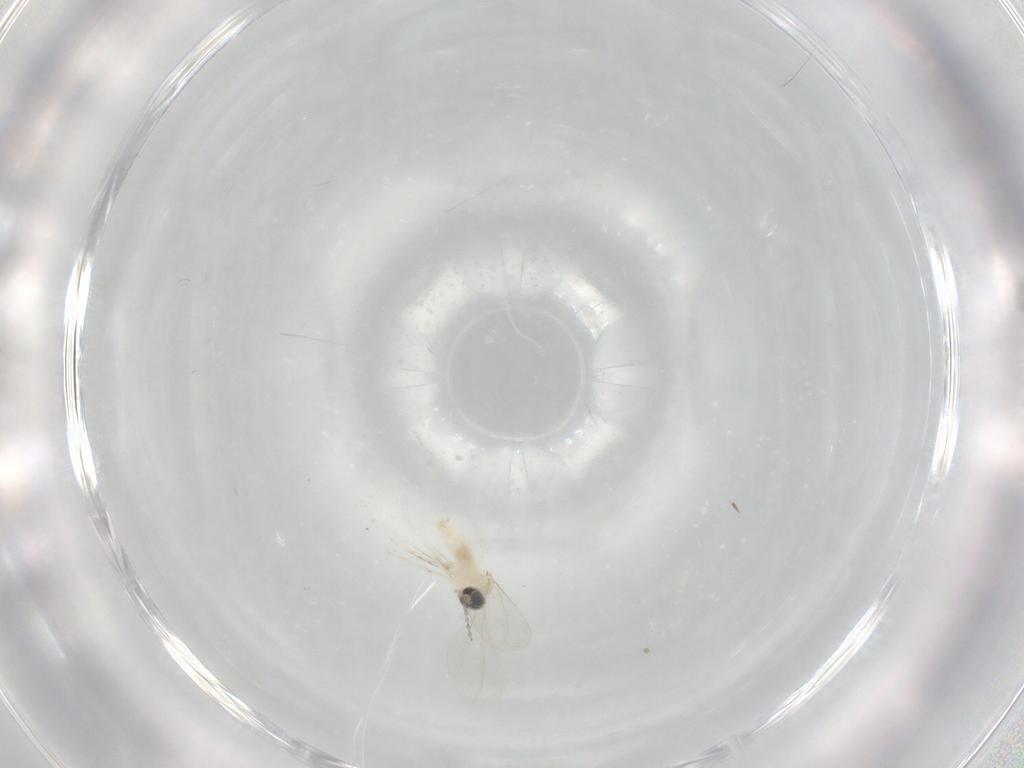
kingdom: Animalia
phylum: Arthropoda
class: Insecta
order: Diptera
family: Cecidomyiidae
